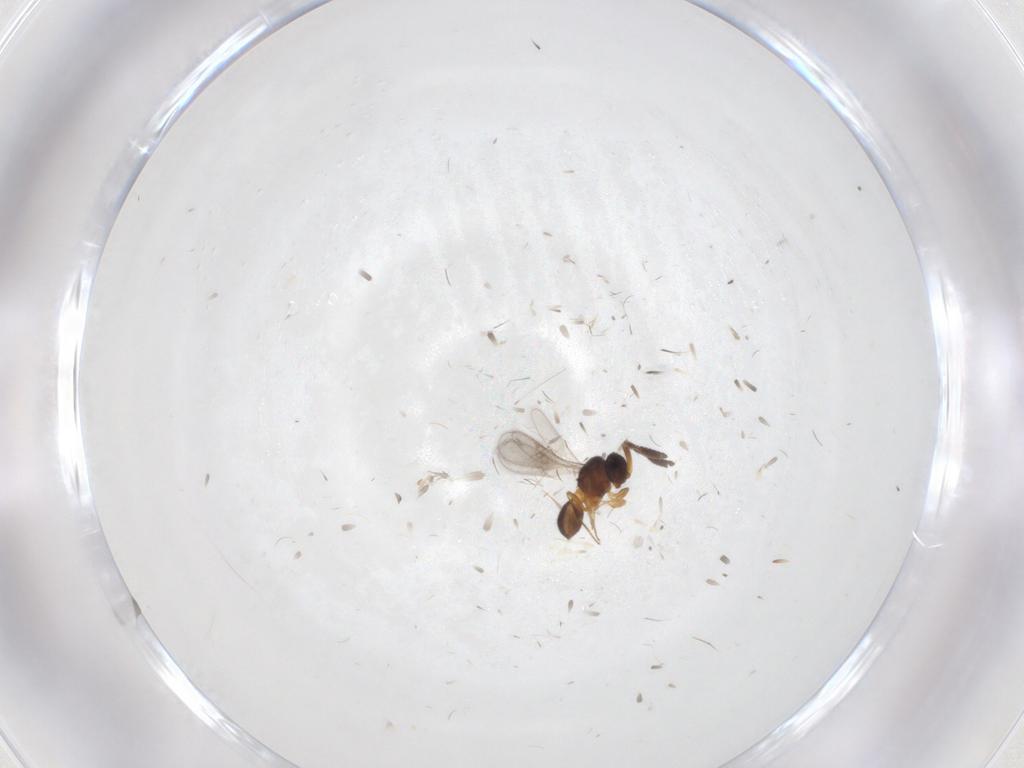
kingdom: Animalia
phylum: Arthropoda
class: Insecta
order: Hymenoptera
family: Scelionidae
